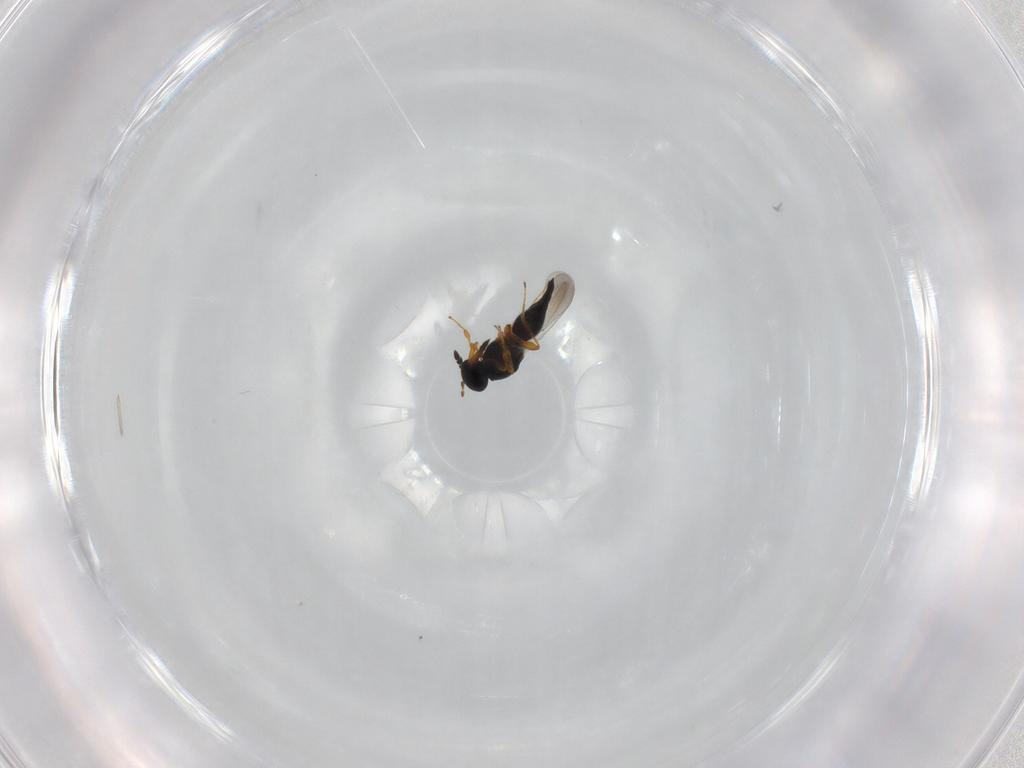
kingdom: Animalia
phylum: Arthropoda
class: Insecta
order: Hymenoptera
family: Platygastridae
